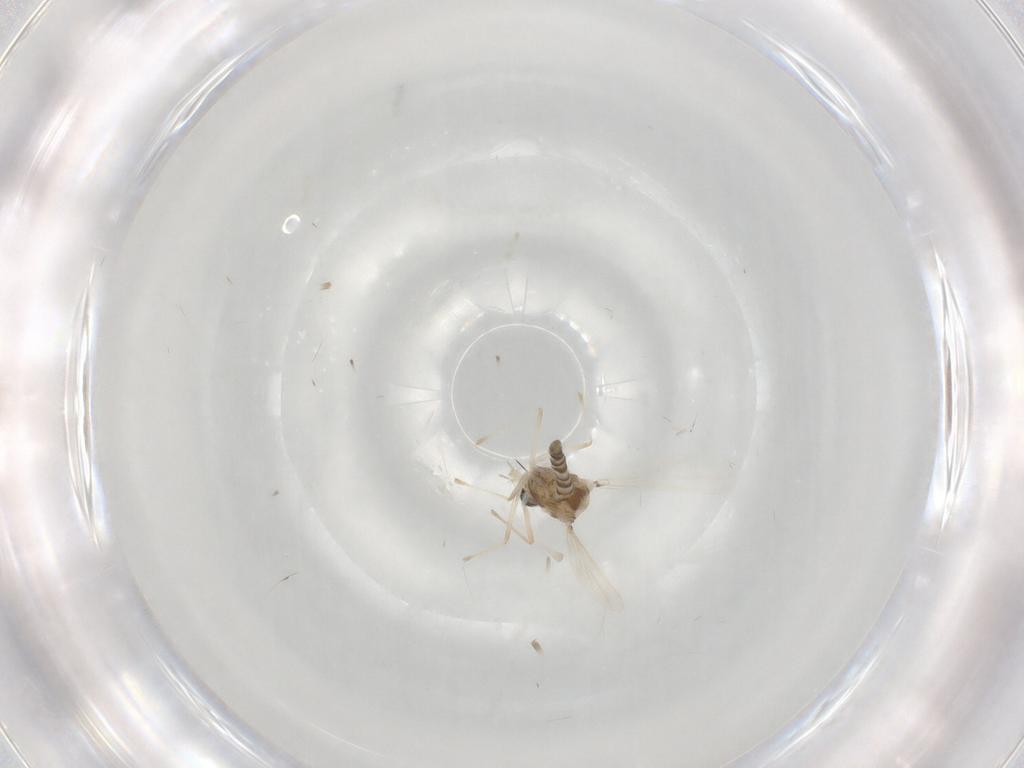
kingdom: Animalia
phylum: Arthropoda
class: Insecta
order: Diptera
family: Chironomidae
